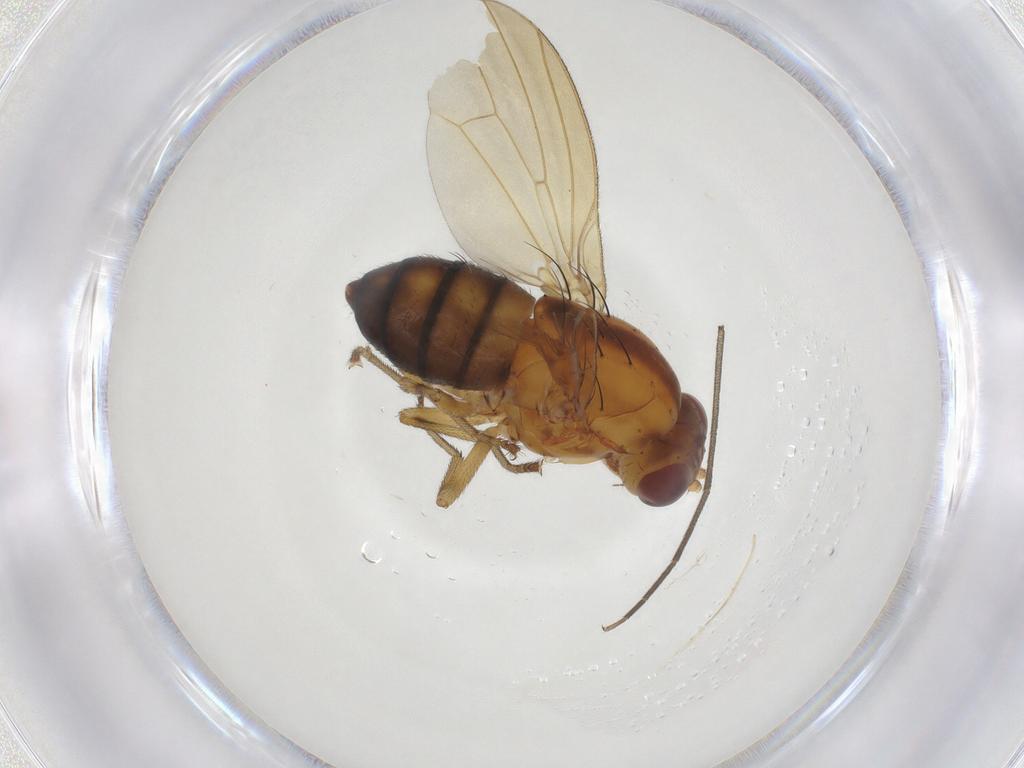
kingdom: Animalia
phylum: Arthropoda
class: Insecta
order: Diptera
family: Ditomyiidae
